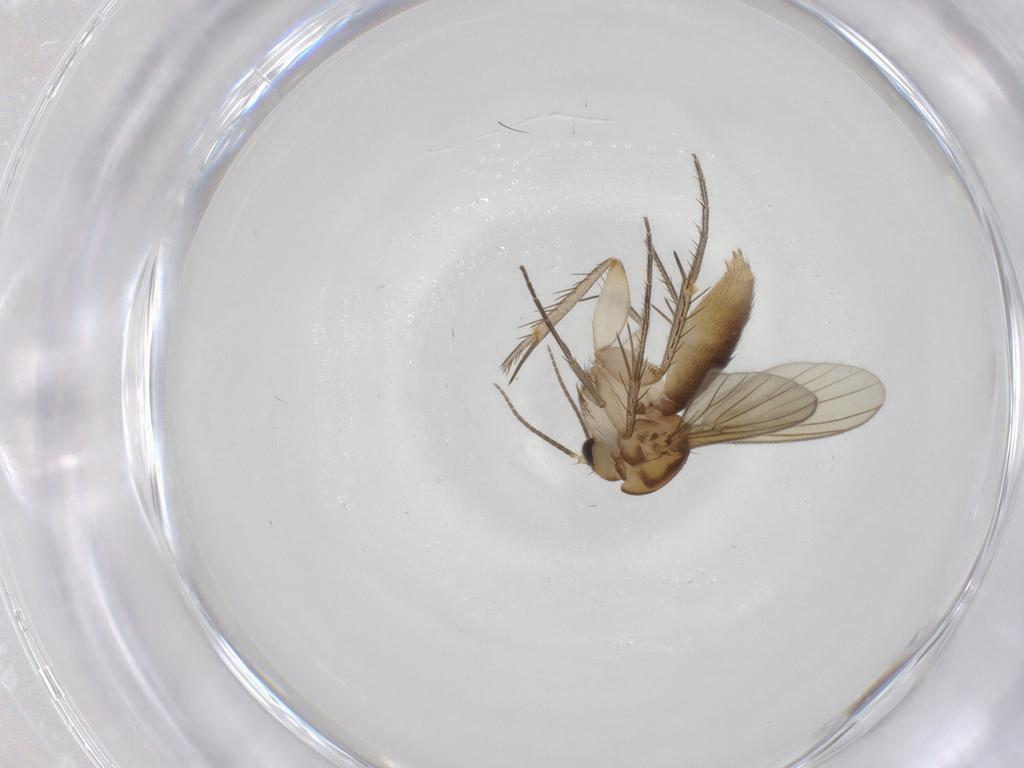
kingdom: Animalia
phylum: Arthropoda
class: Insecta
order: Diptera
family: Mycetophilidae
